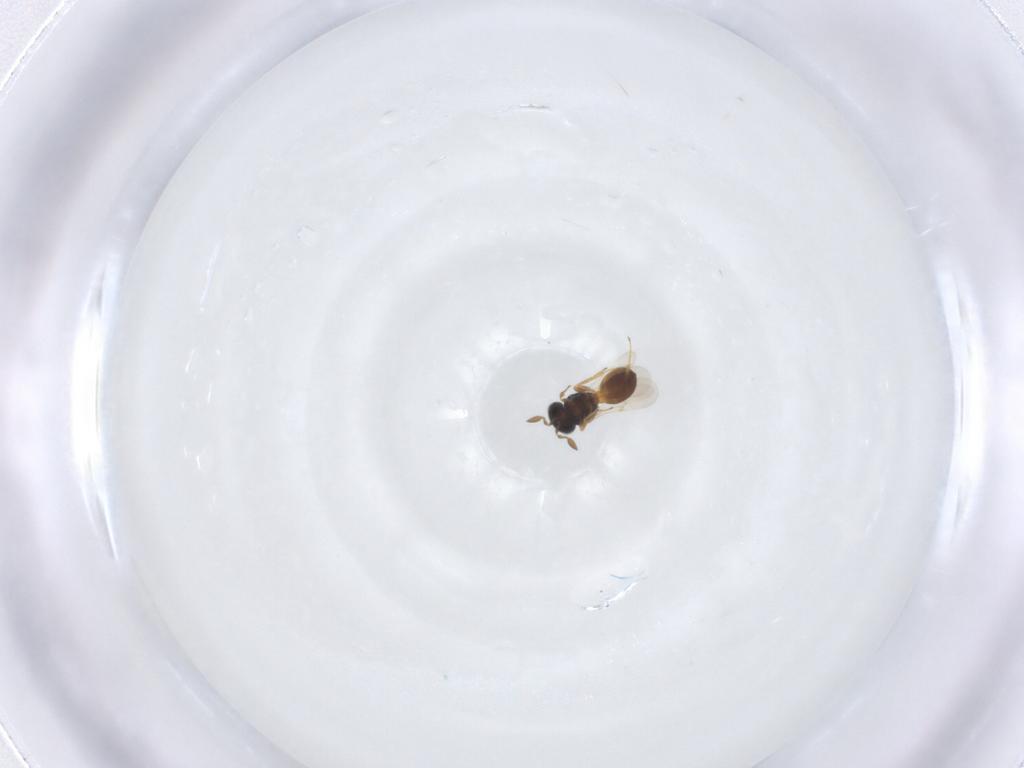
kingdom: Animalia
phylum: Arthropoda
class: Insecta
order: Hymenoptera
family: Scelionidae
